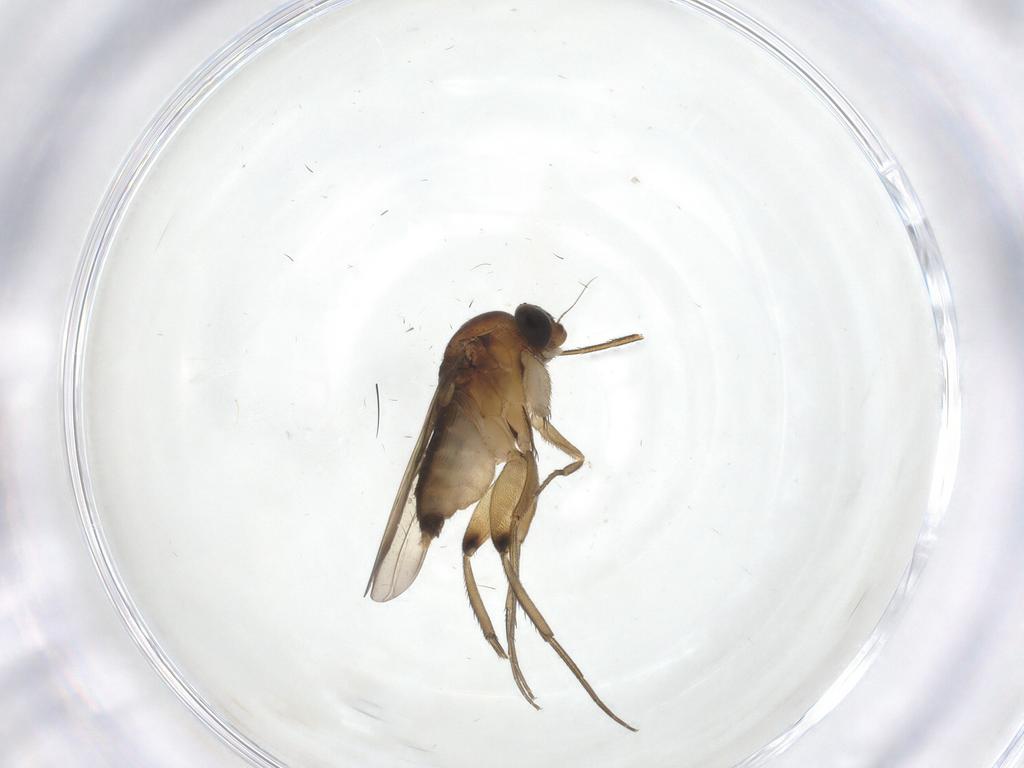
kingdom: Animalia
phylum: Arthropoda
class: Insecta
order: Diptera
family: Phoridae
